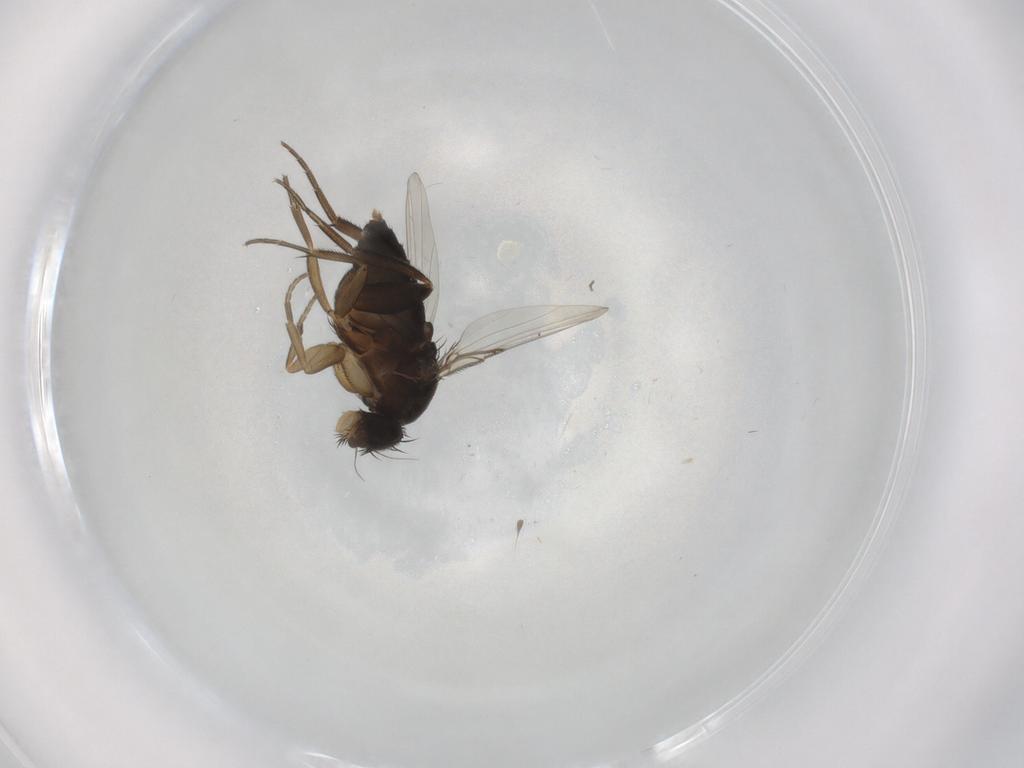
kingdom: Animalia
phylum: Arthropoda
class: Insecta
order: Diptera
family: Phoridae
